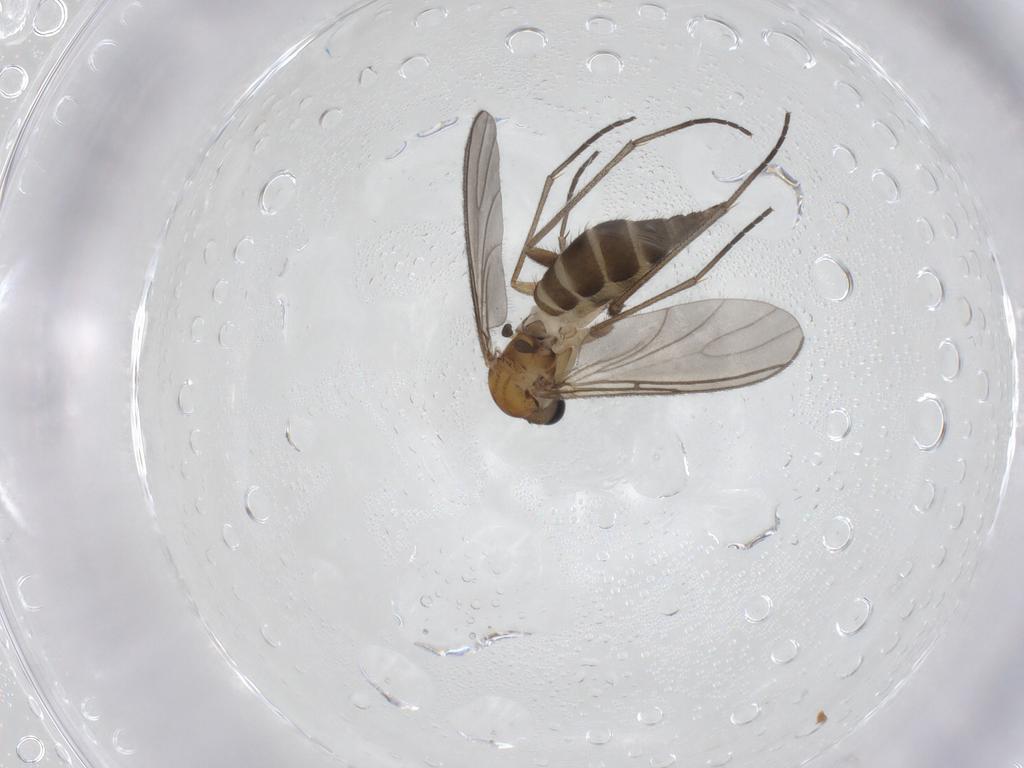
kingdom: Animalia
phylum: Arthropoda
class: Insecta
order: Diptera
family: Sciaridae
